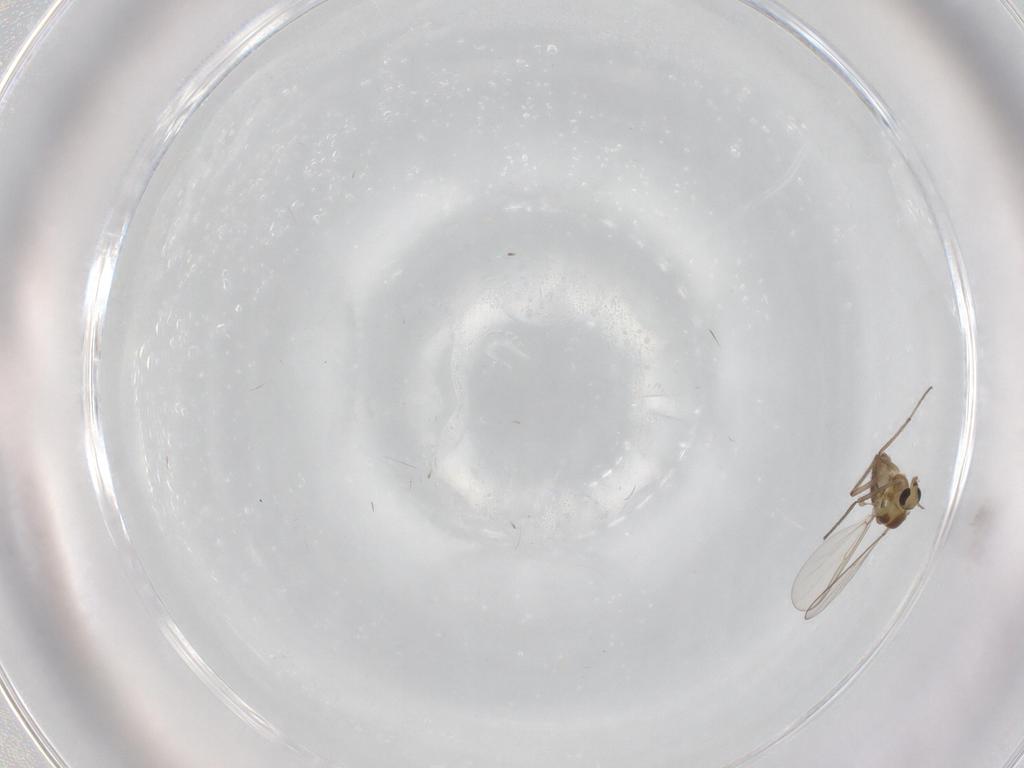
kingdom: Animalia
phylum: Arthropoda
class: Insecta
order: Diptera
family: Chironomidae
